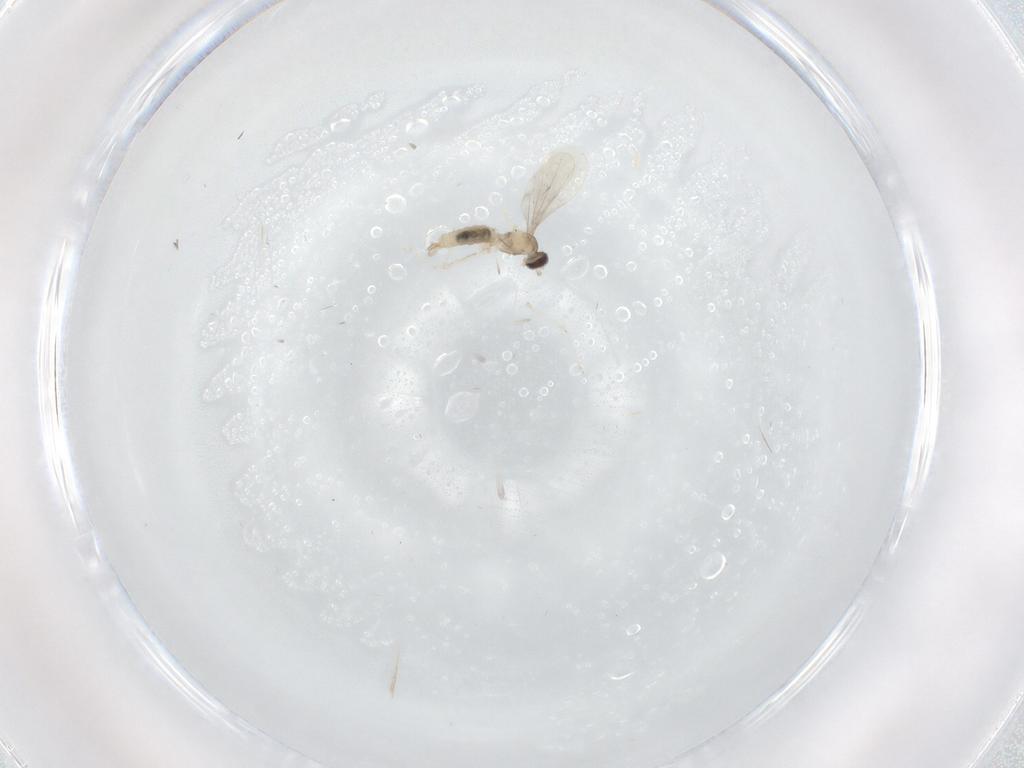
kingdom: Animalia
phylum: Arthropoda
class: Insecta
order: Diptera
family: Cecidomyiidae
